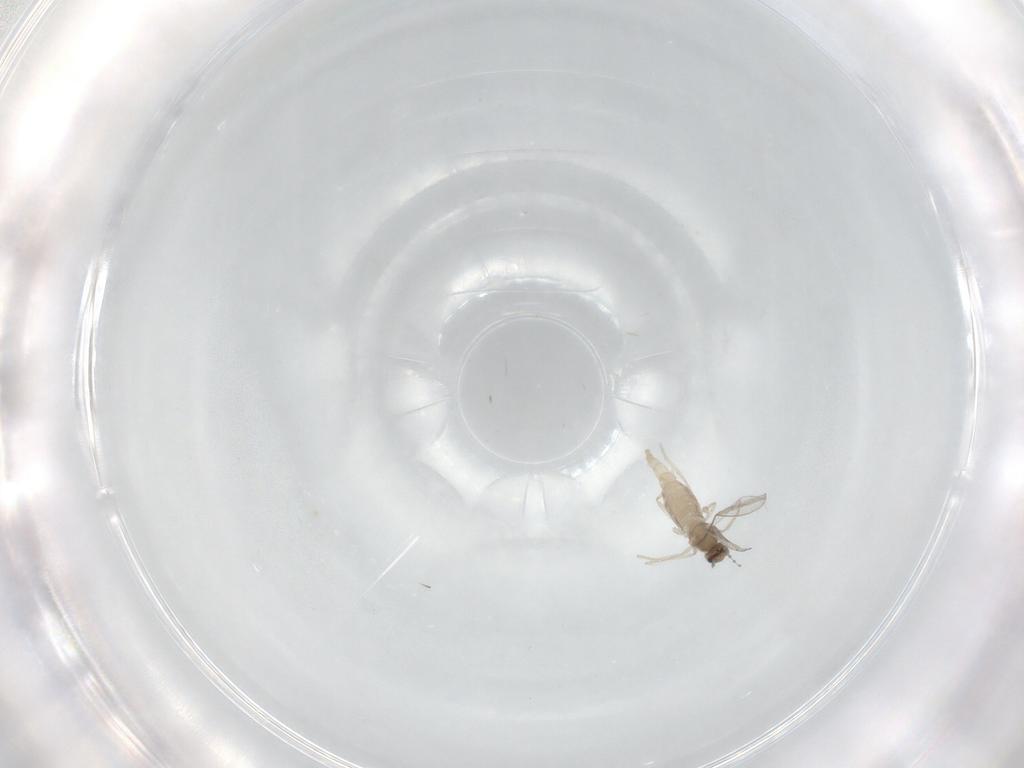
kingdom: Animalia
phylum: Arthropoda
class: Insecta
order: Diptera
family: Cecidomyiidae
